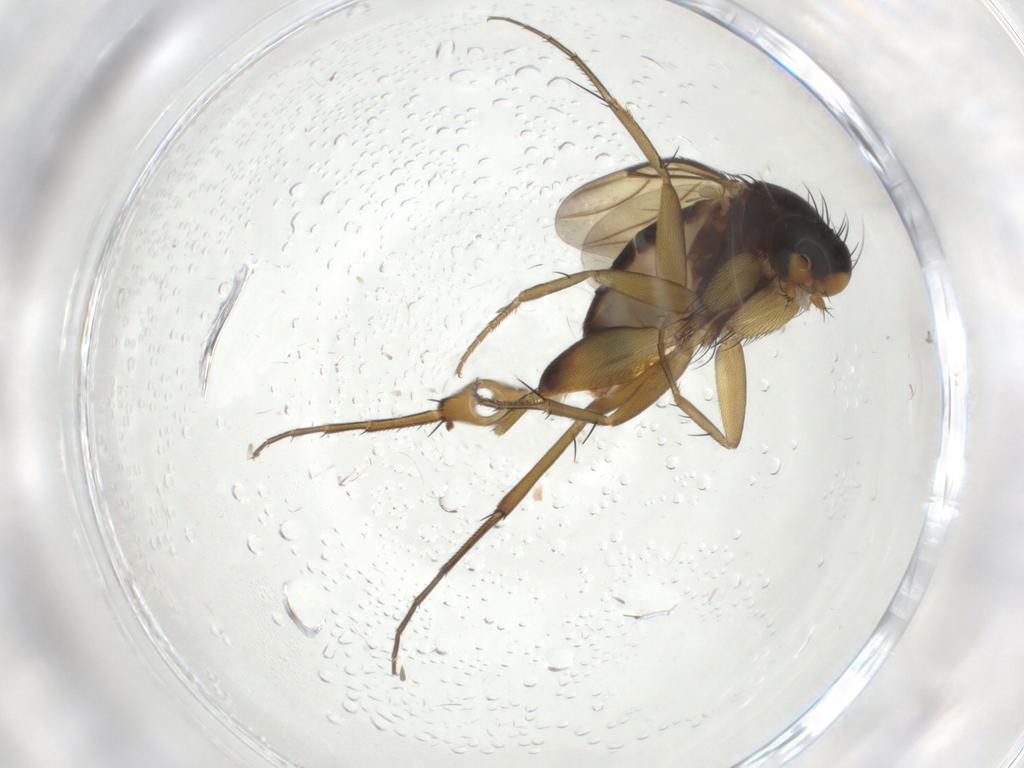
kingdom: Animalia
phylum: Arthropoda
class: Insecta
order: Diptera
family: Phoridae
